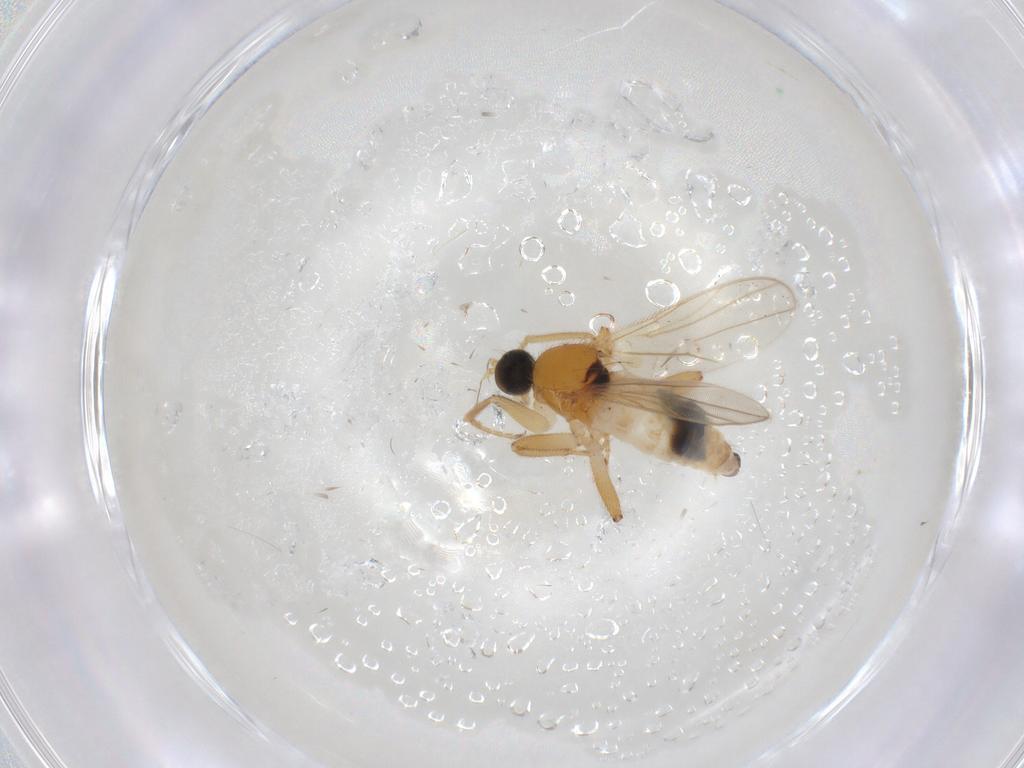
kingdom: Animalia
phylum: Arthropoda
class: Insecta
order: Diptera
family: Hybotidae
